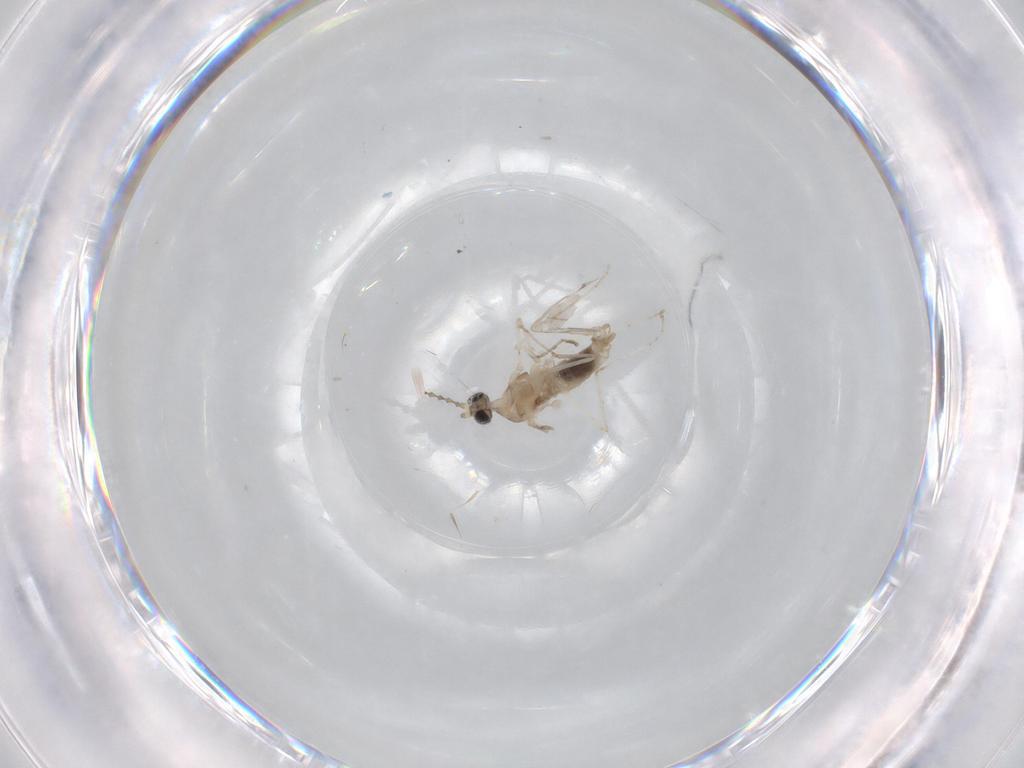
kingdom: Animalia
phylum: Arthropoda
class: Insecta
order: Diptera
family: Cecidomyiidae
